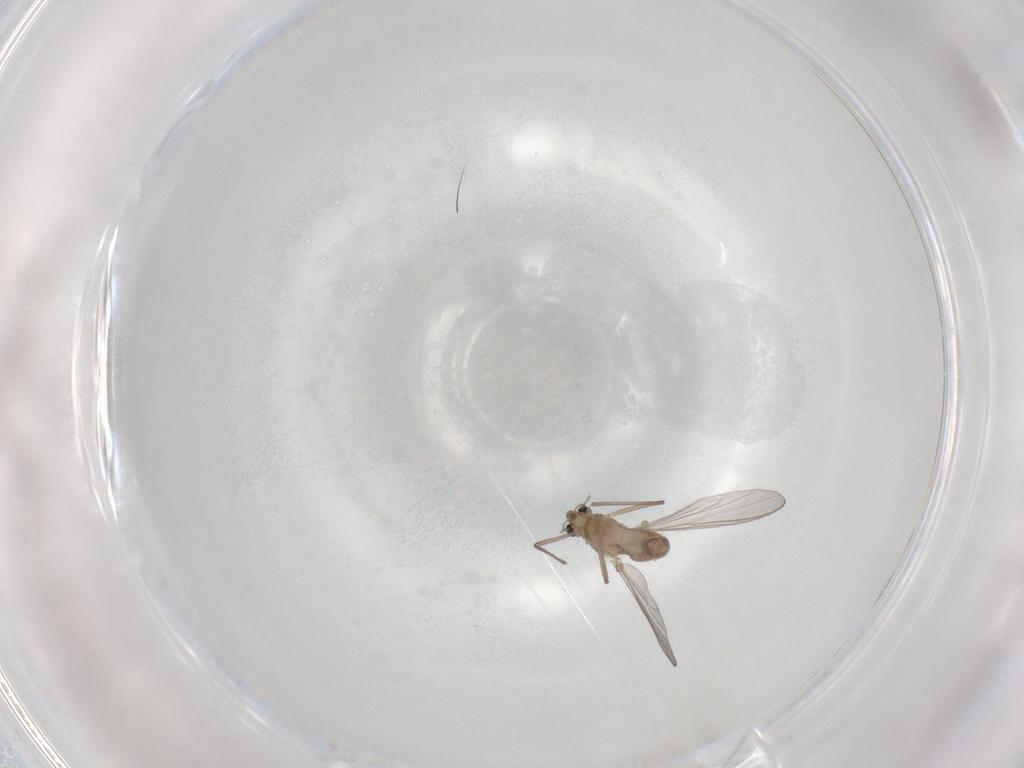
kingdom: Animalia
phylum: Arthropoda
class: Insecta
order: Diptera
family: Chironomidae
